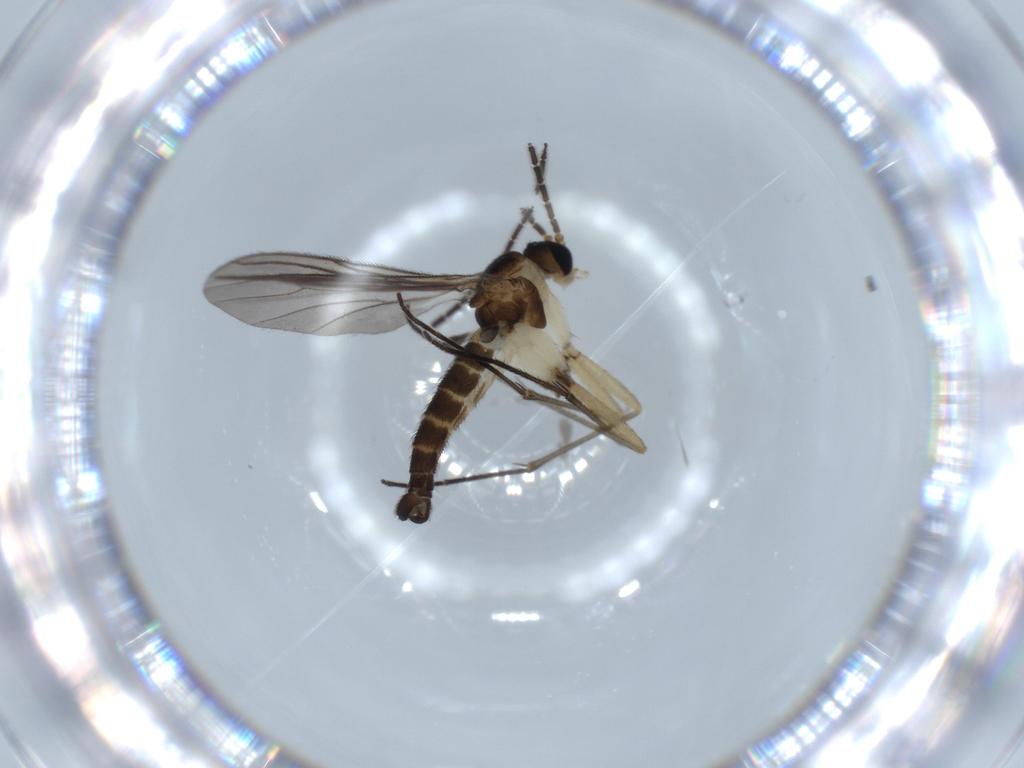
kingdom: Animalia
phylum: Arthropoda
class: Insecta
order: Diptera
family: Sciaridae
